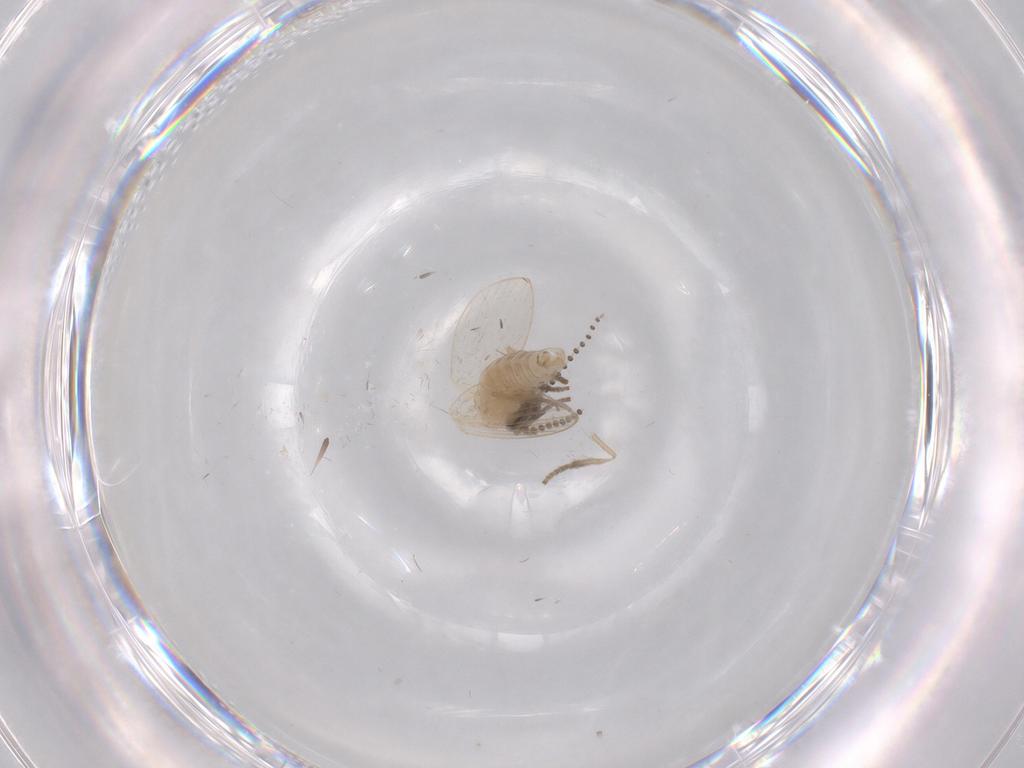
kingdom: Animalia
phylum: Arthropoda
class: Insecta
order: Diptera
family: Psychodidae
